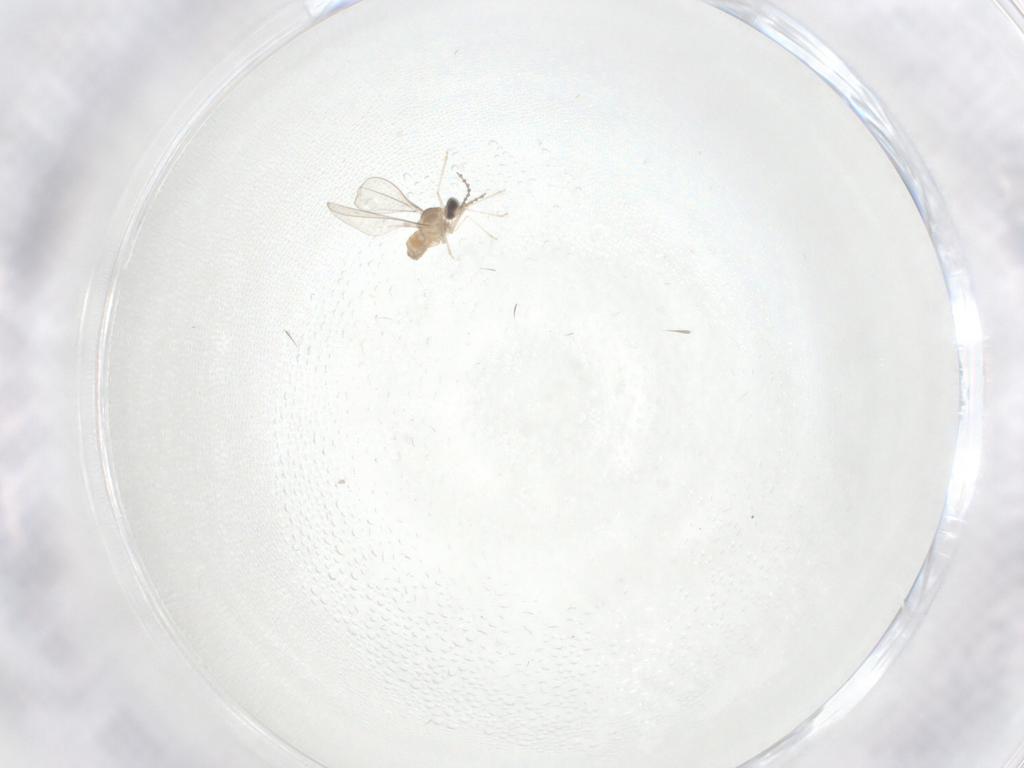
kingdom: Animalia
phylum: Arthropoda
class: Insecta
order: Diptera
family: Cecidomyiidae
